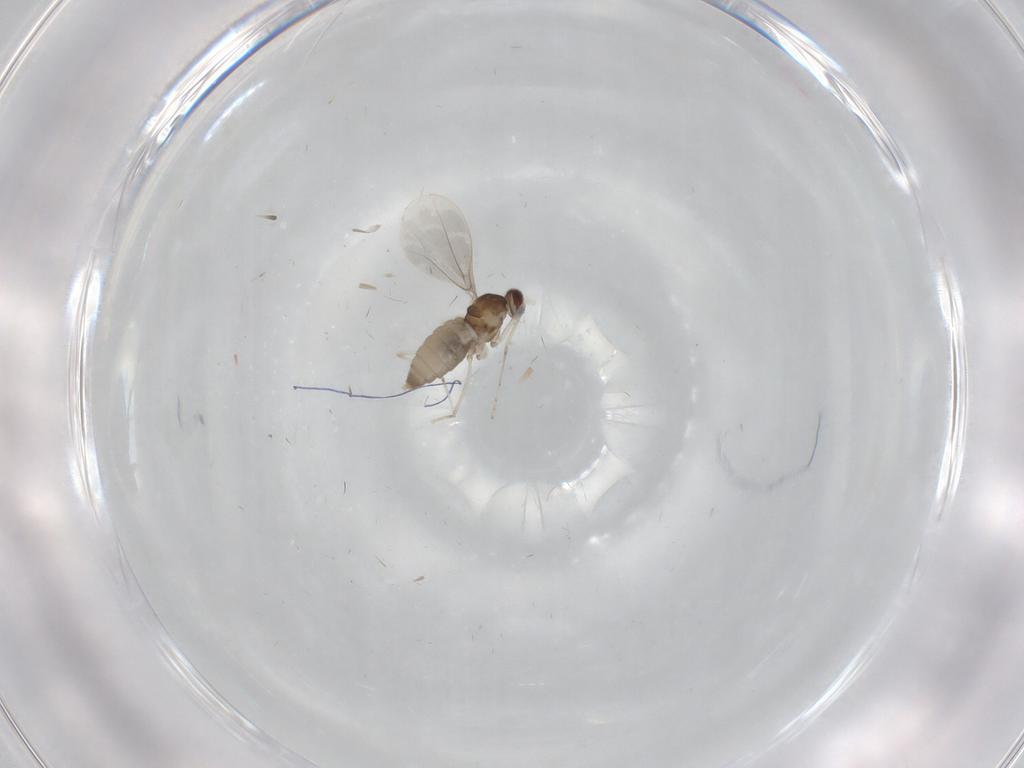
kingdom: Animalia
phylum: Arthropoda
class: Insecta
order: Diptera
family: Cecidomyiidae
